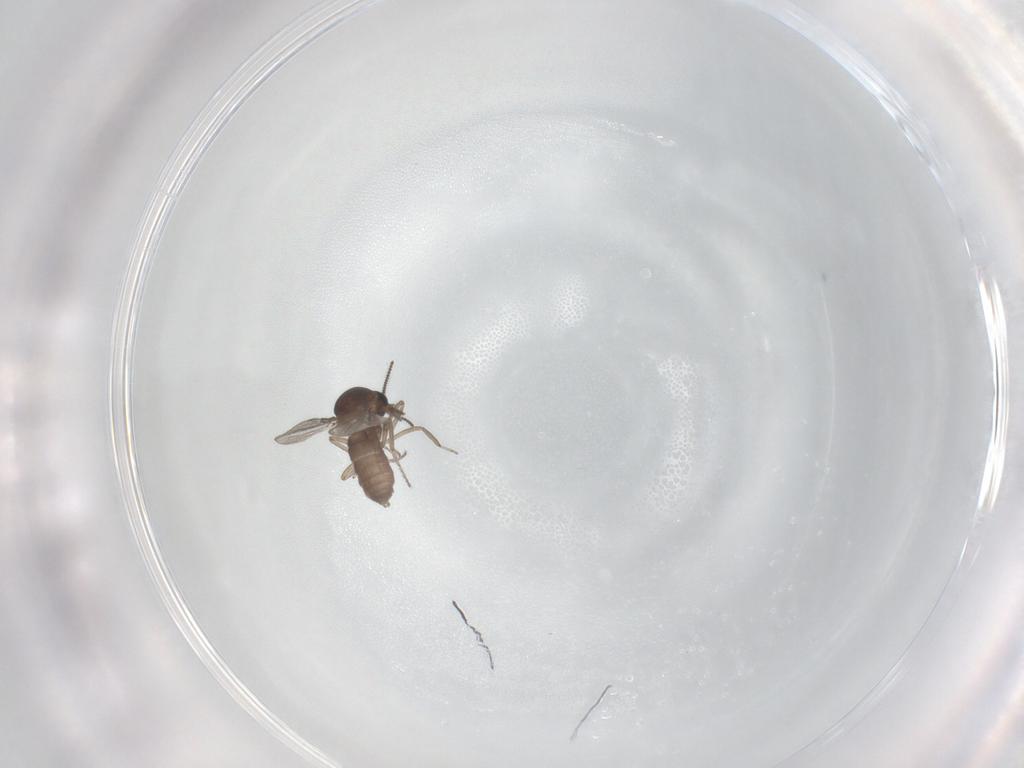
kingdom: Animalia
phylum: Arthropoda
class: Insecta
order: Diptera
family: Ceratopogonidae
